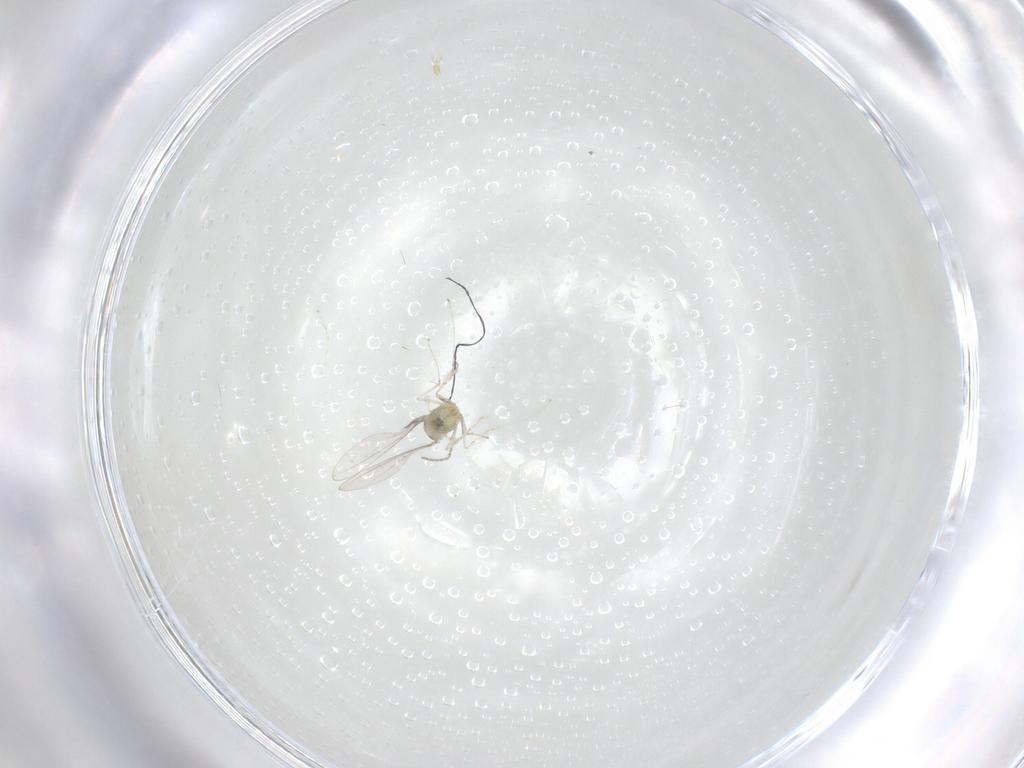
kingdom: Animalia
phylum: Arthropoda
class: Insecta
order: Diptera
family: Cecidomyiidae
